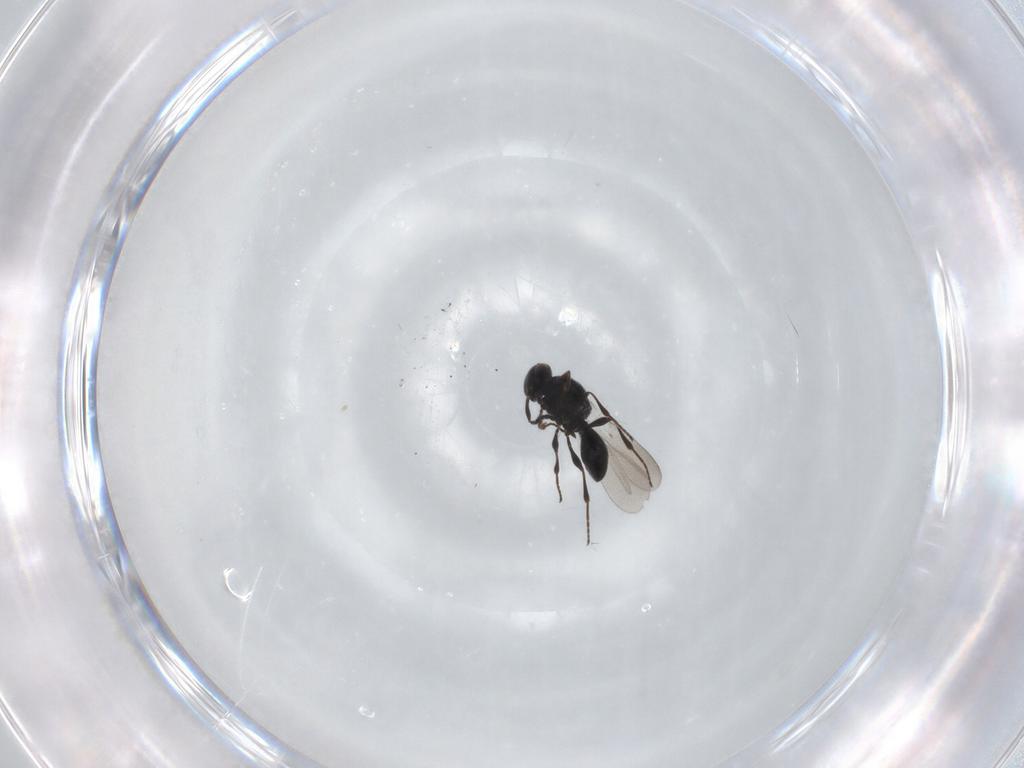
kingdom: Animalia
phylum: Arthropoda
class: Insecta
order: Hymenoptera
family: Platygastridae
